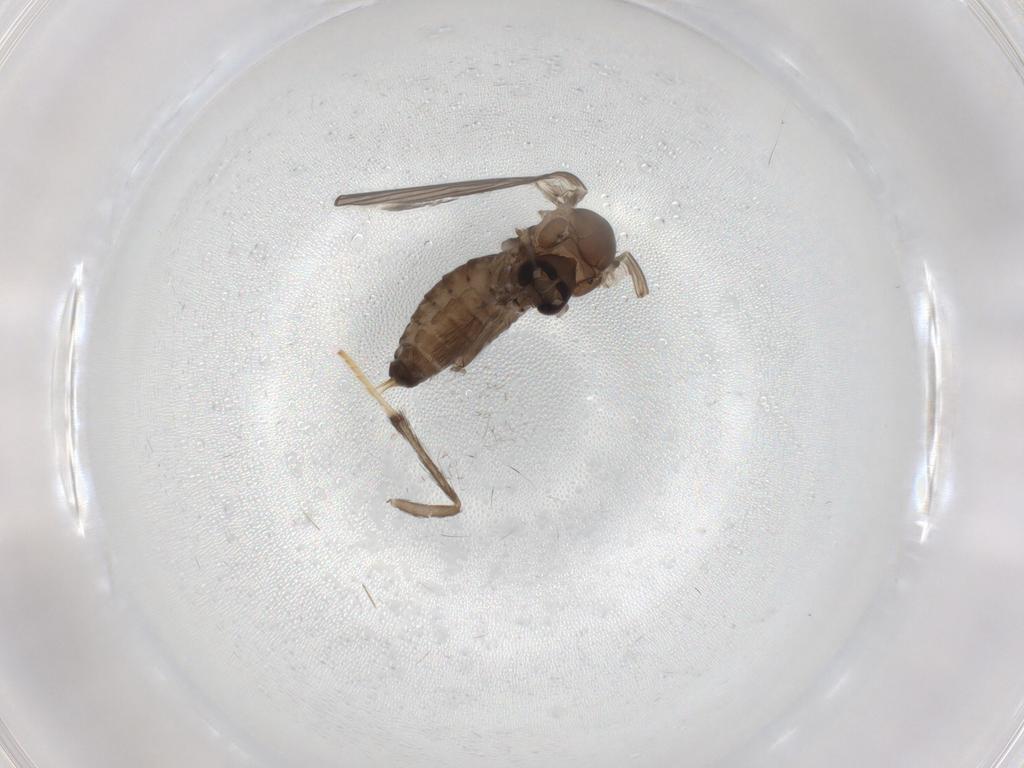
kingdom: Animalia
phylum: Arthropoda
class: Insecta
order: Diptera
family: Psychodidae
